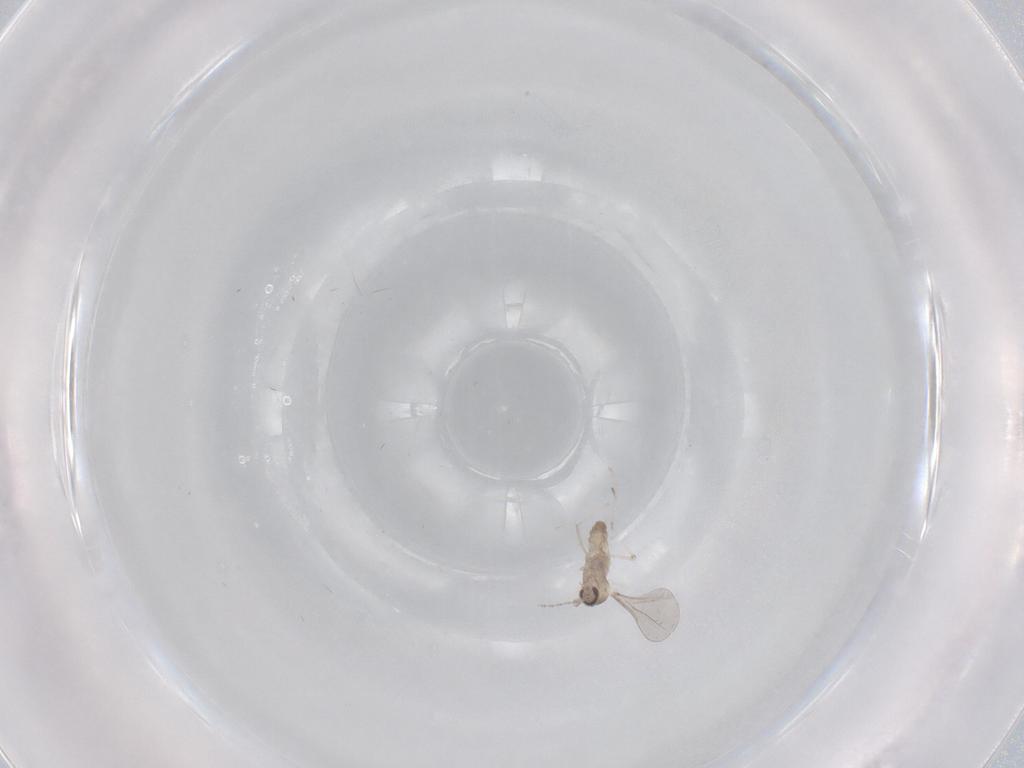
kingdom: Animalia
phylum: Arthropoda
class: Insecta
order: Diptera
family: Cecidomyiidae
